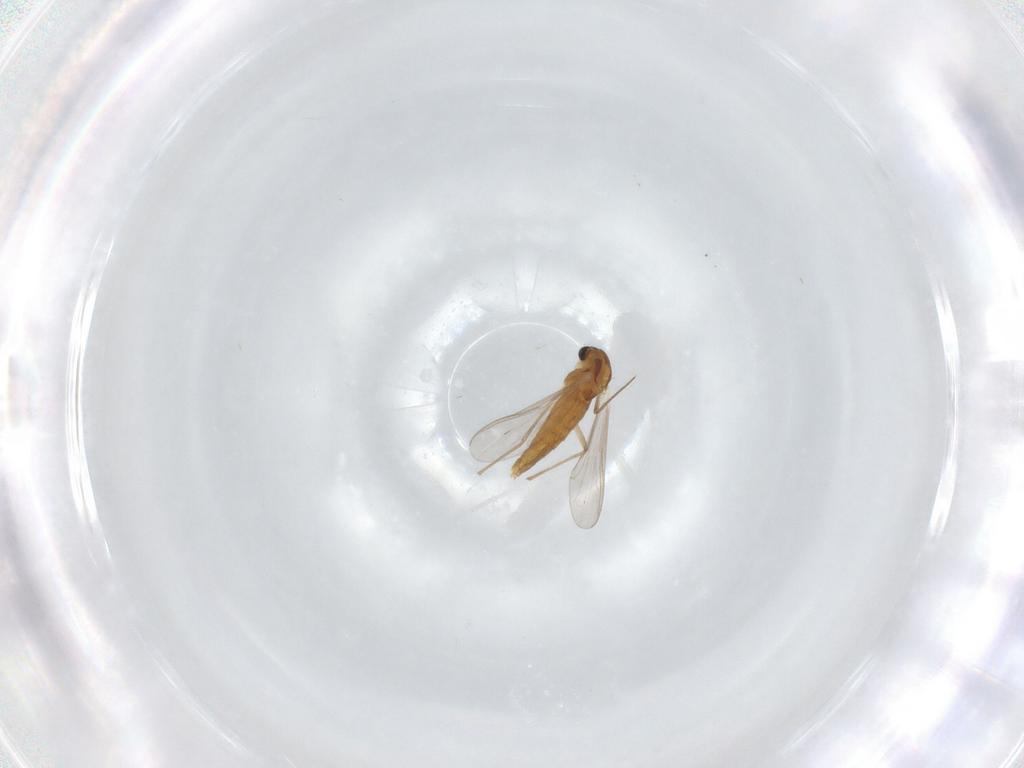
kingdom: Animalia
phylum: Arthropoda
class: Insecta
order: Diptera
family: Chironomidae
